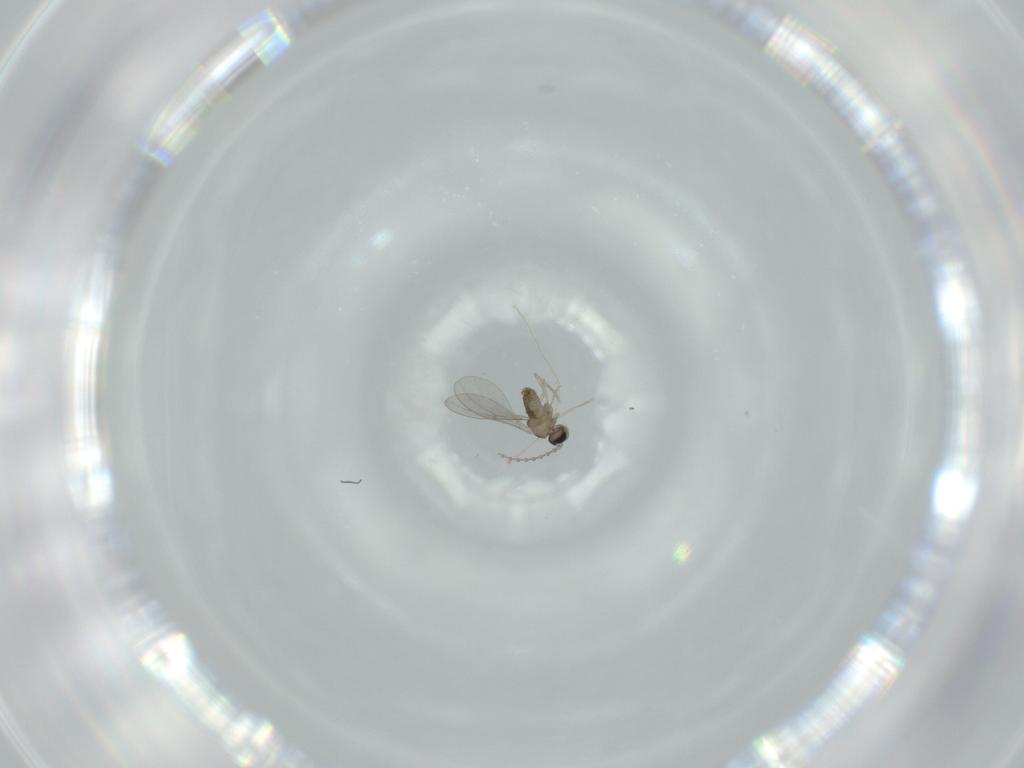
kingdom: Animalia
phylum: Arthropoda
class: Insecta
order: Diptera
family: Cecidomyiidae
